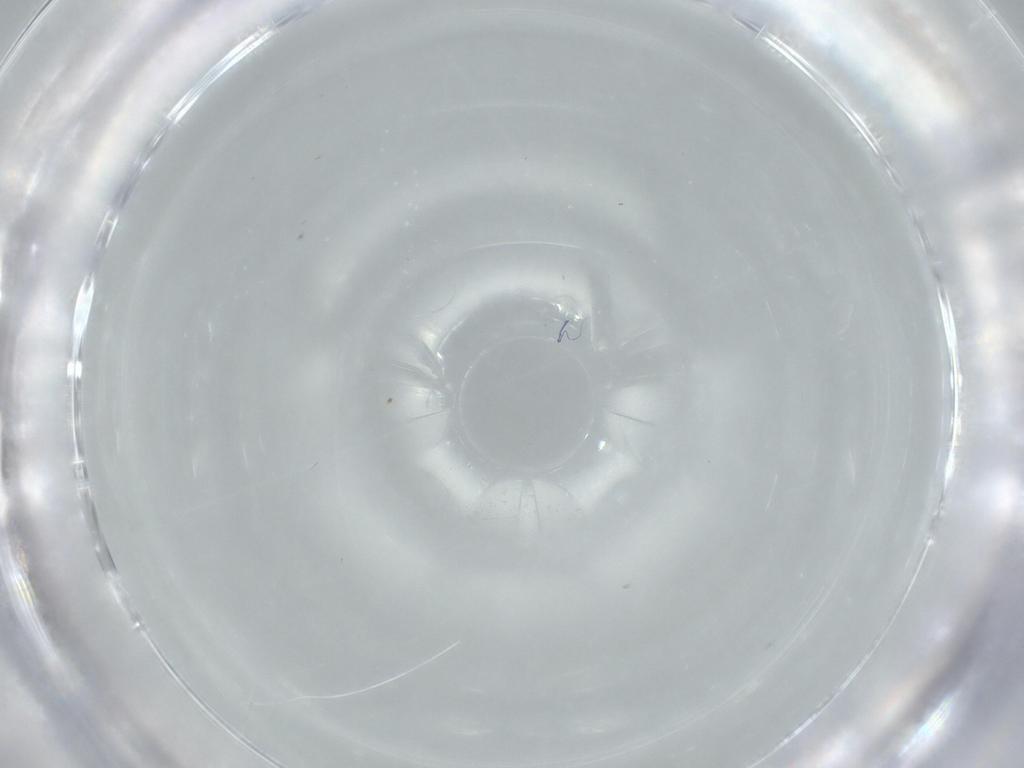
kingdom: Animalia
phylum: Arthropoda
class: Insecta
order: Diptera
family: Cecidomyiidae
